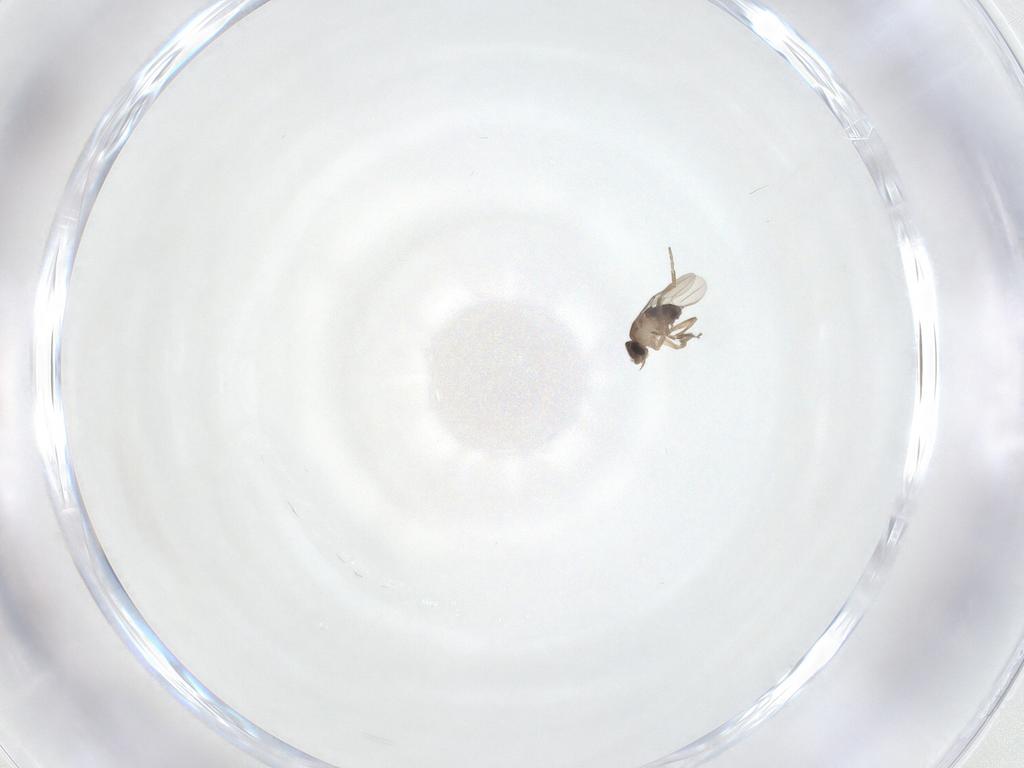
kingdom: Animalia
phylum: Arthropoda
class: Insecta
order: Diptera
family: Phoridae
